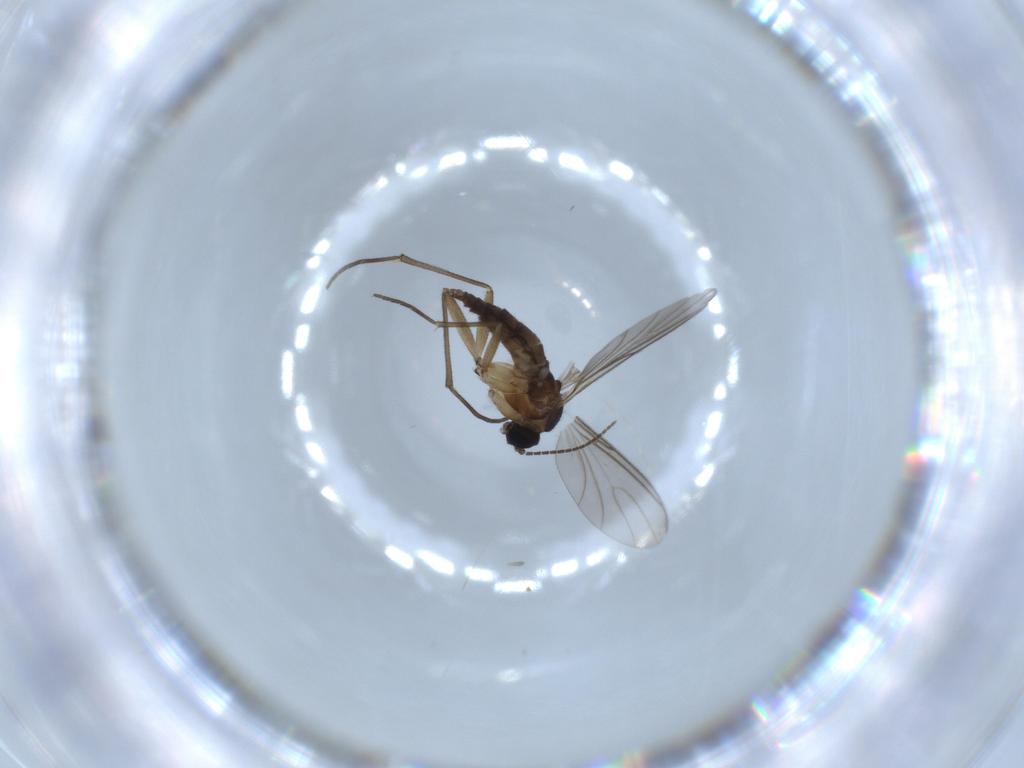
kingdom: Animalia
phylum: Arthropoda
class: Insecta
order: Diptera
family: Sciaridae
